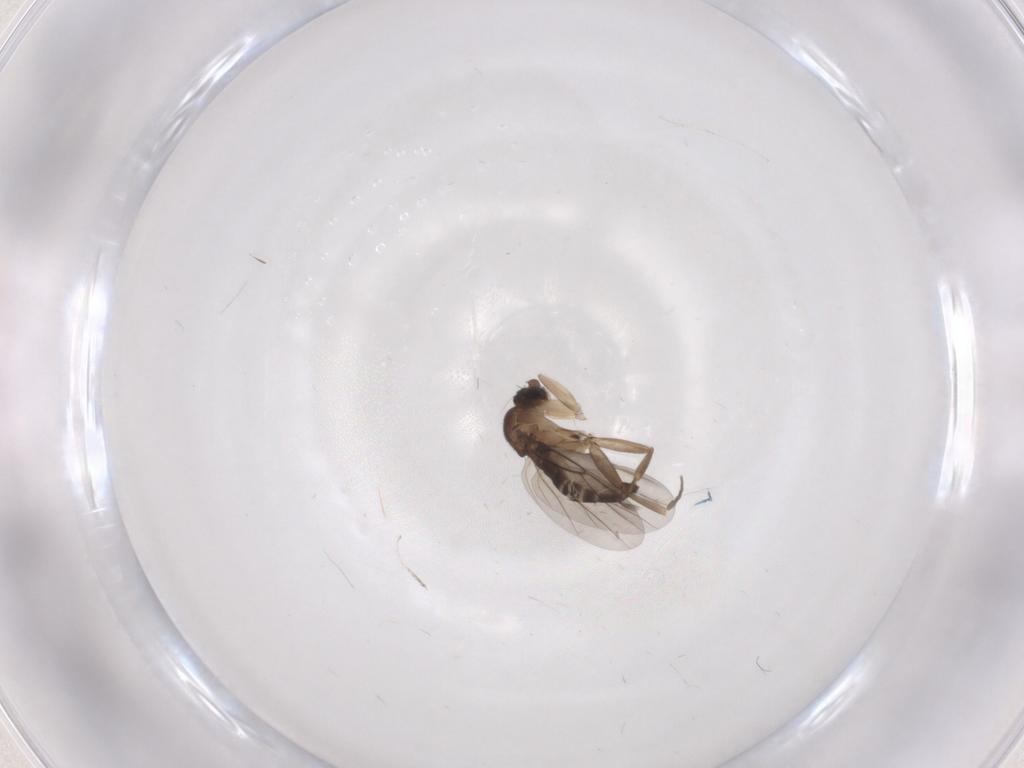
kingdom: Animalia
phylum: Arthropoda
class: Insecta
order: Diptera
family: Phoridae
